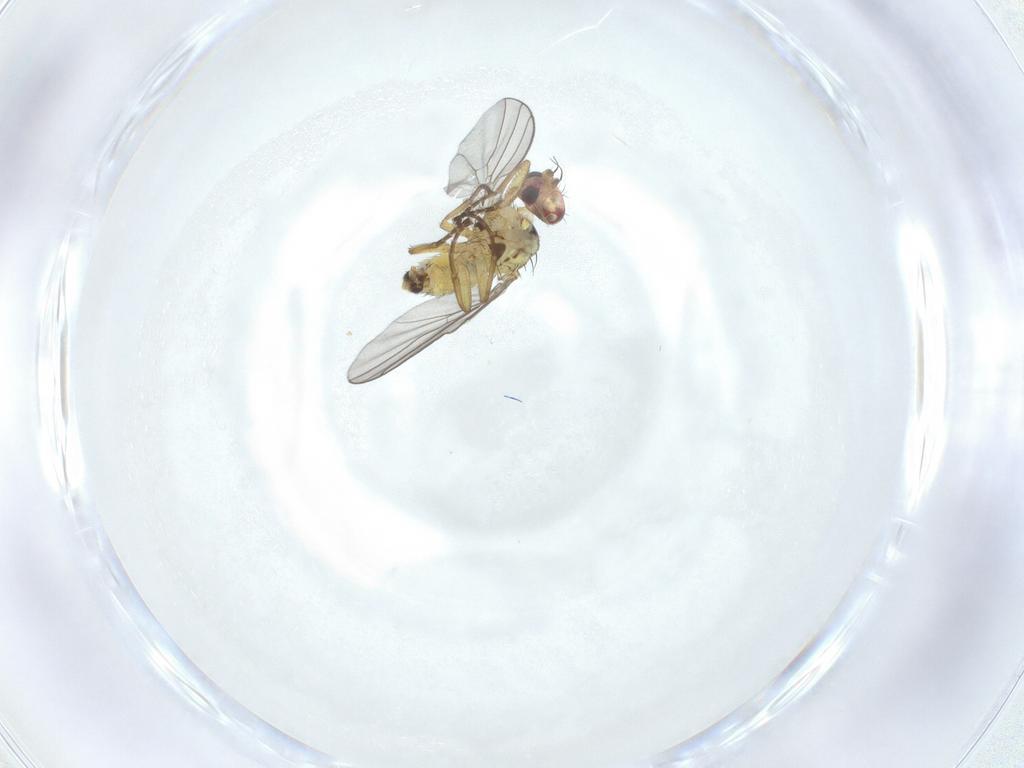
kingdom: Animalia
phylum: Arthropoda
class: Insecta
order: Diptera
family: Agromyzidae
